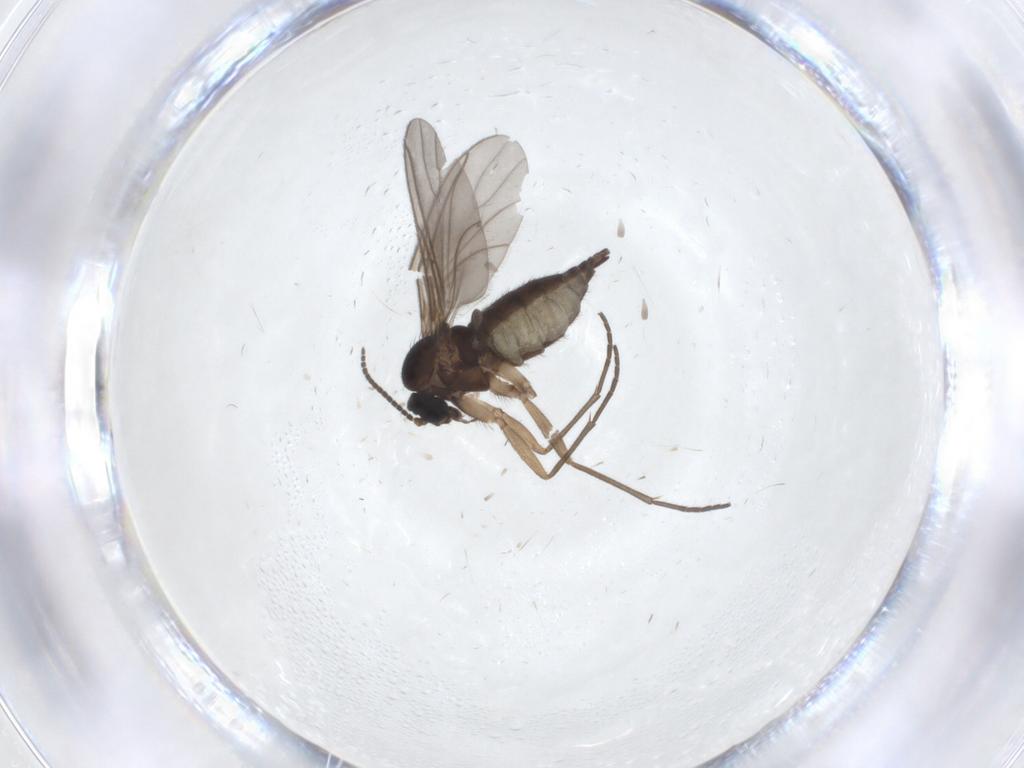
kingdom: Animalia
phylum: Arthropoda
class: Insecta
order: Diptera
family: Sciaridae
